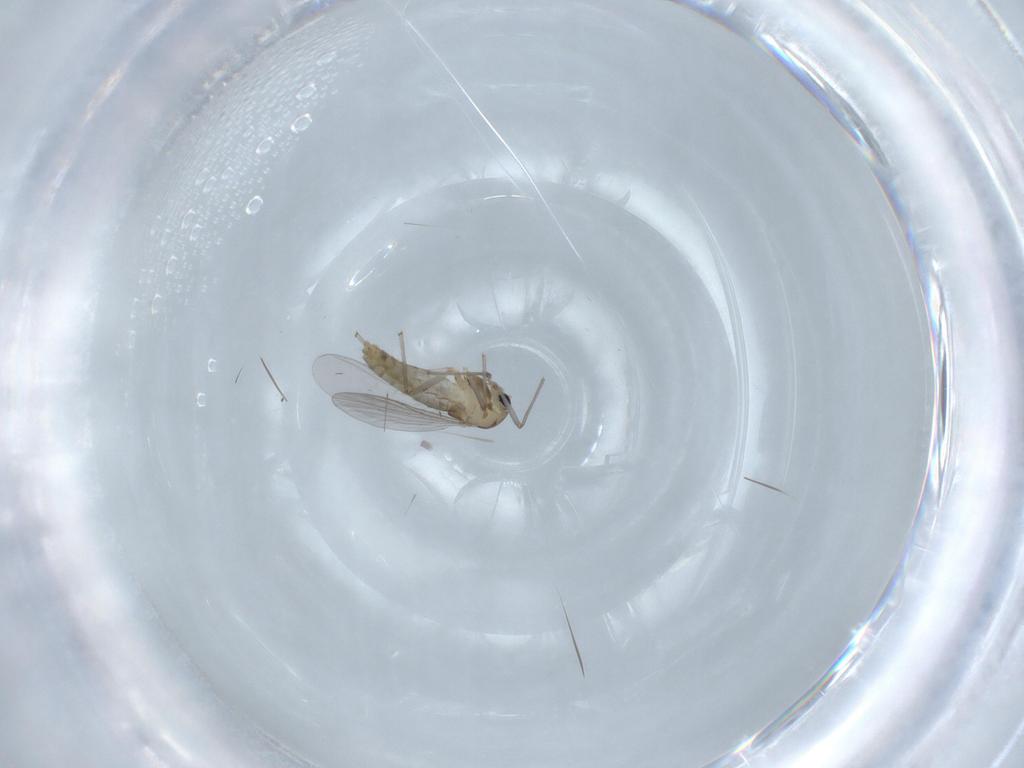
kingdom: Animalia
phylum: Arthropoda
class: Insecta
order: Diptera
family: Chironomidae
